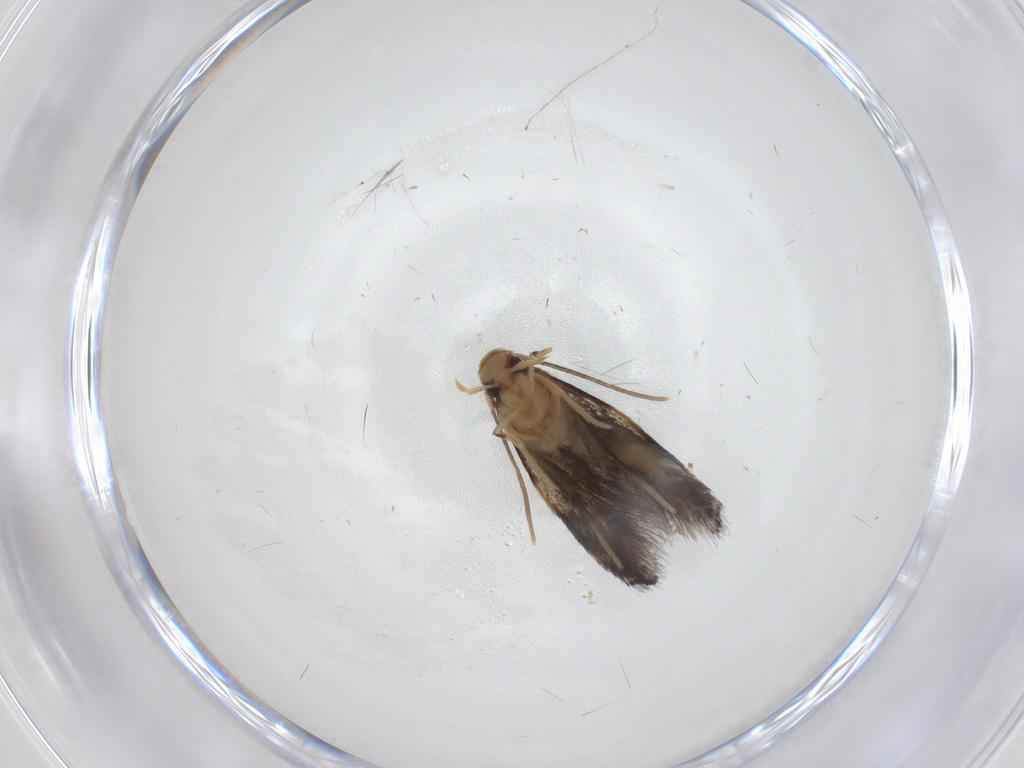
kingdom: Animalia
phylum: Arthropoda
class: Insecta
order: Lepidoptera
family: Gelechiidae
